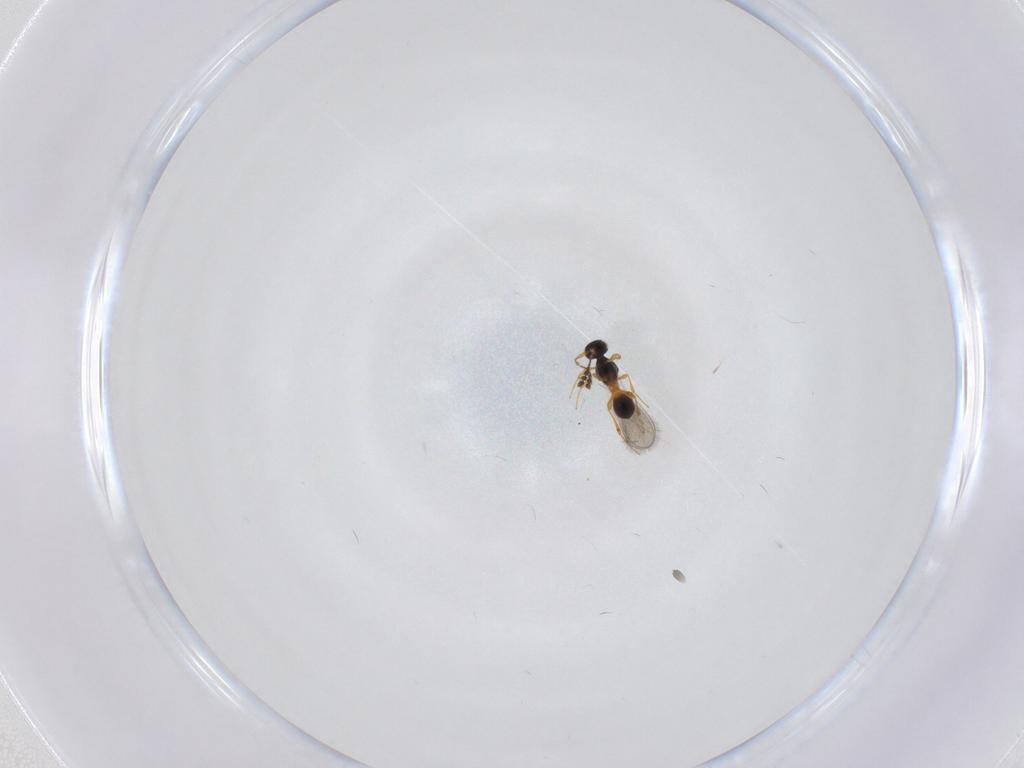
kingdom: Animalia
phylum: Arthropoda
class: Insecta
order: Hymenoptera
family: Platygastridae
